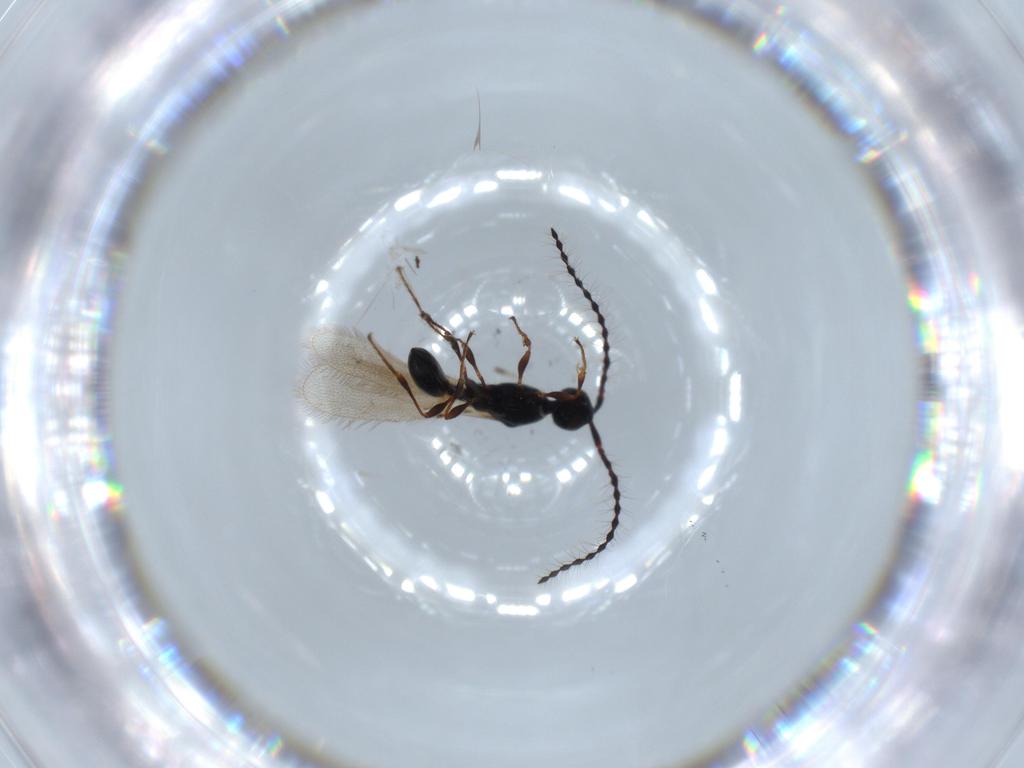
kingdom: Animalia
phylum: Arthropoda
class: Insecta
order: Hymenoptera
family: Diapriidae
